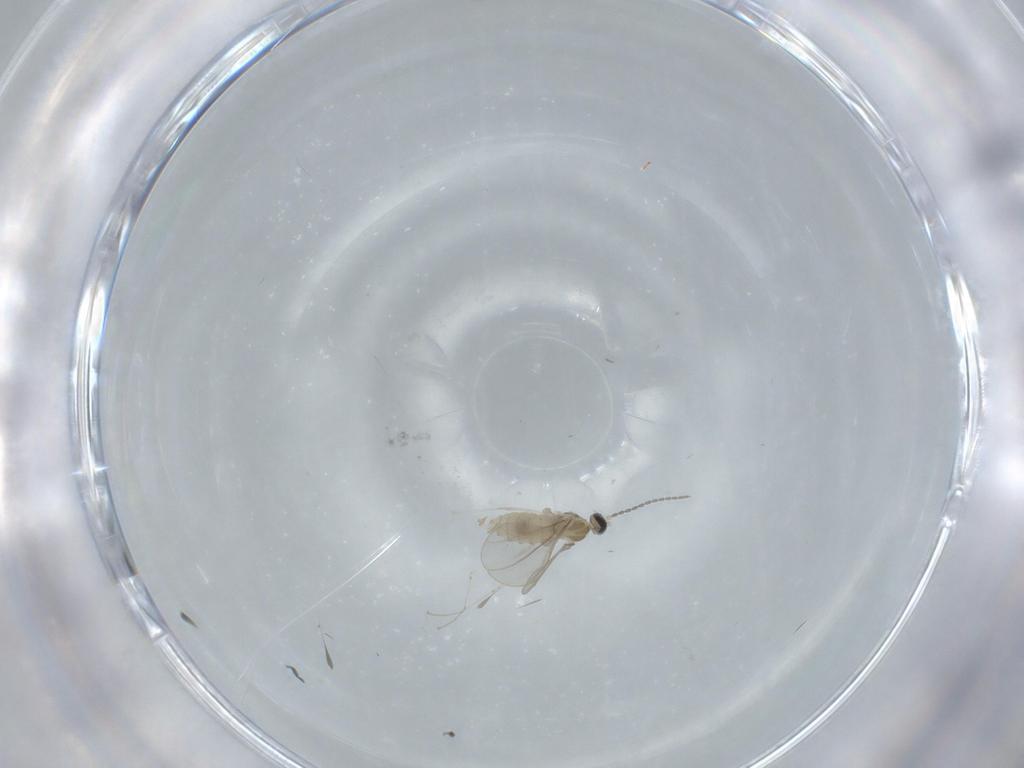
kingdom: Animalia
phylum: Arthropoda
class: Insecta
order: Diptera
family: Cecidomyiidae
